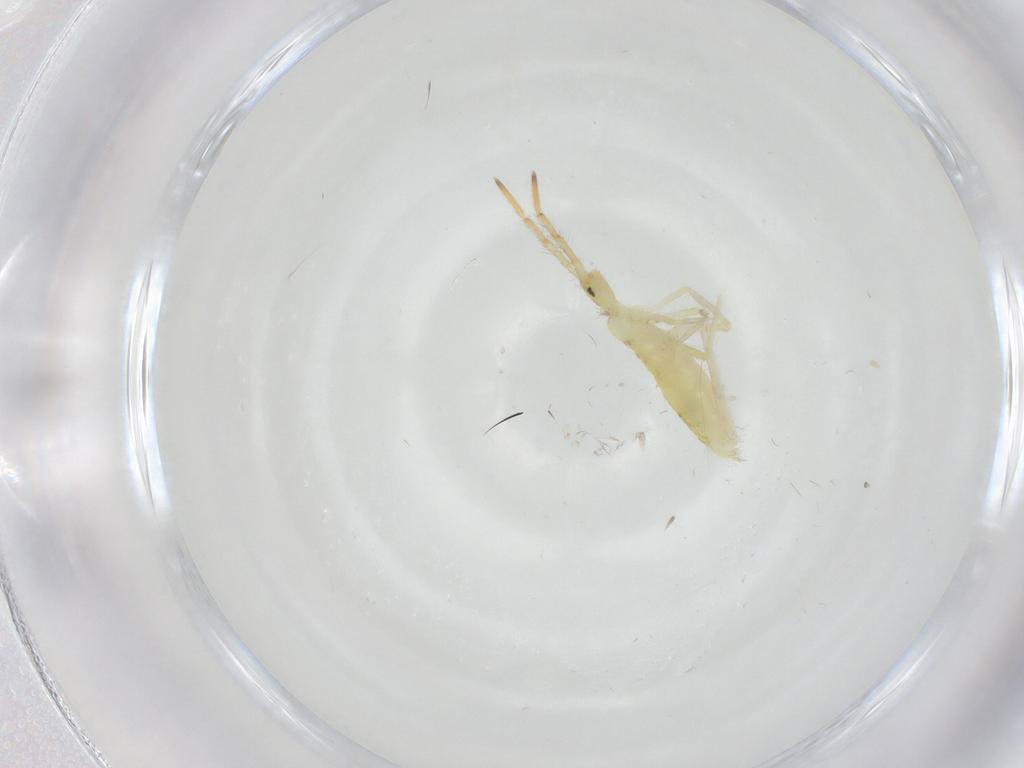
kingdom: Animalia
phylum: Arthropoda
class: Collembola
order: Entomobryomorpha
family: Entomobryidae
